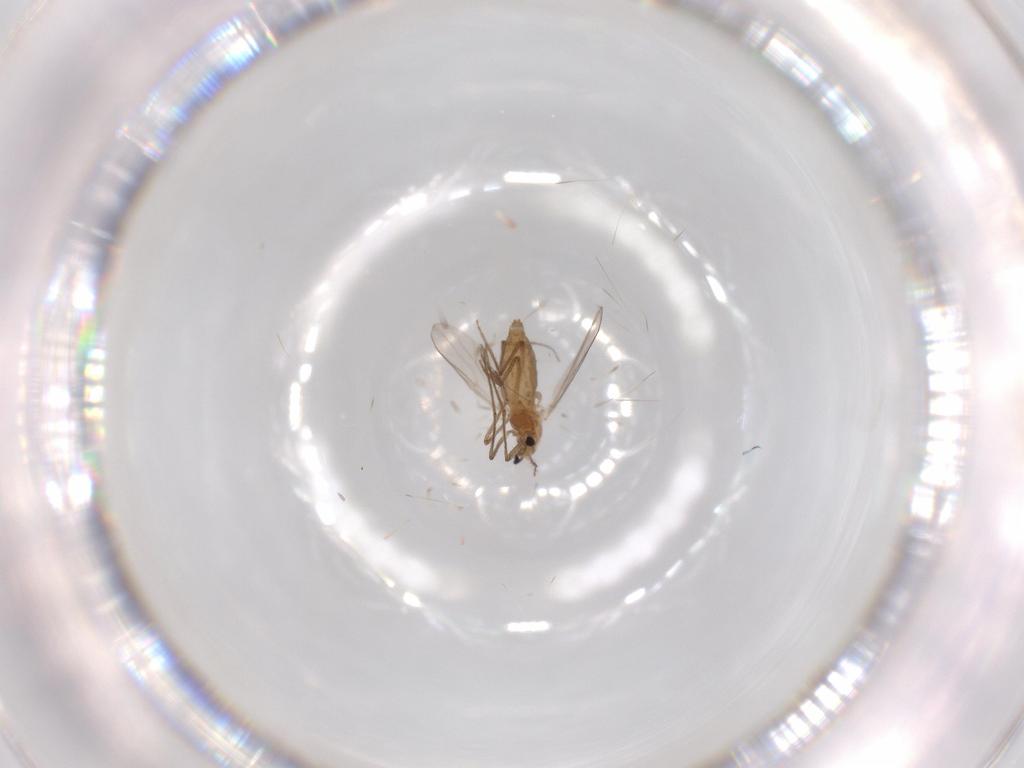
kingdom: Animalia
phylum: Arthropoda
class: Insecta
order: Diptera
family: Chironomidae
